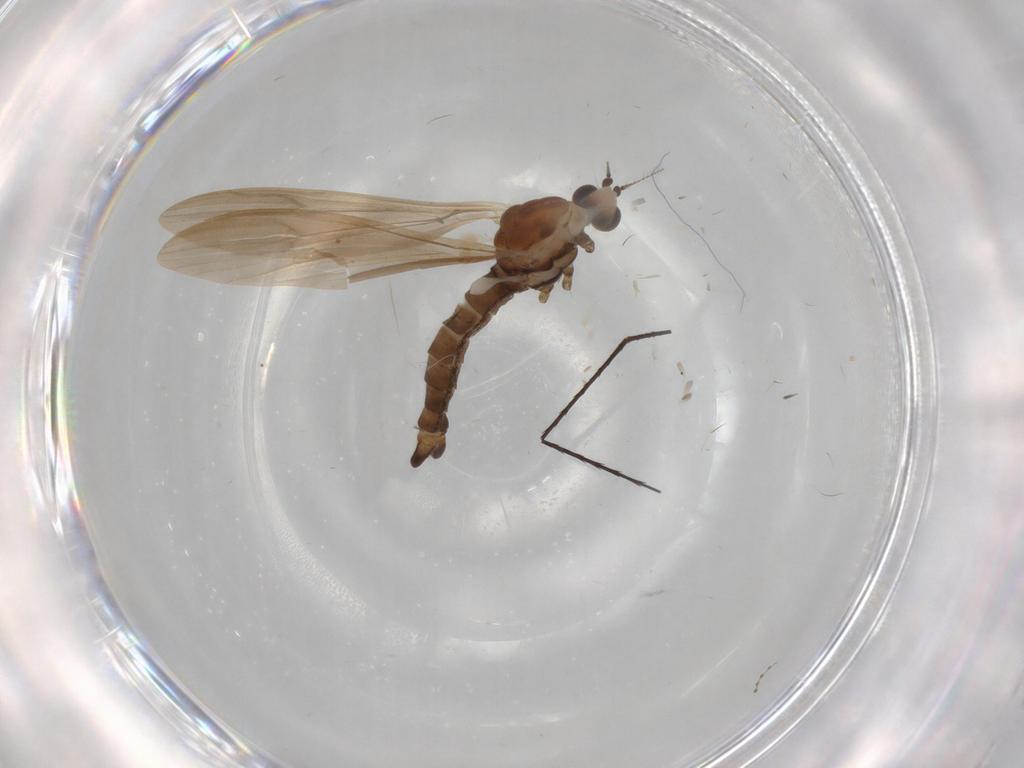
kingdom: Animalia
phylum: Arthropoda
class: Insecta
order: Diptera
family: Limoniidae
